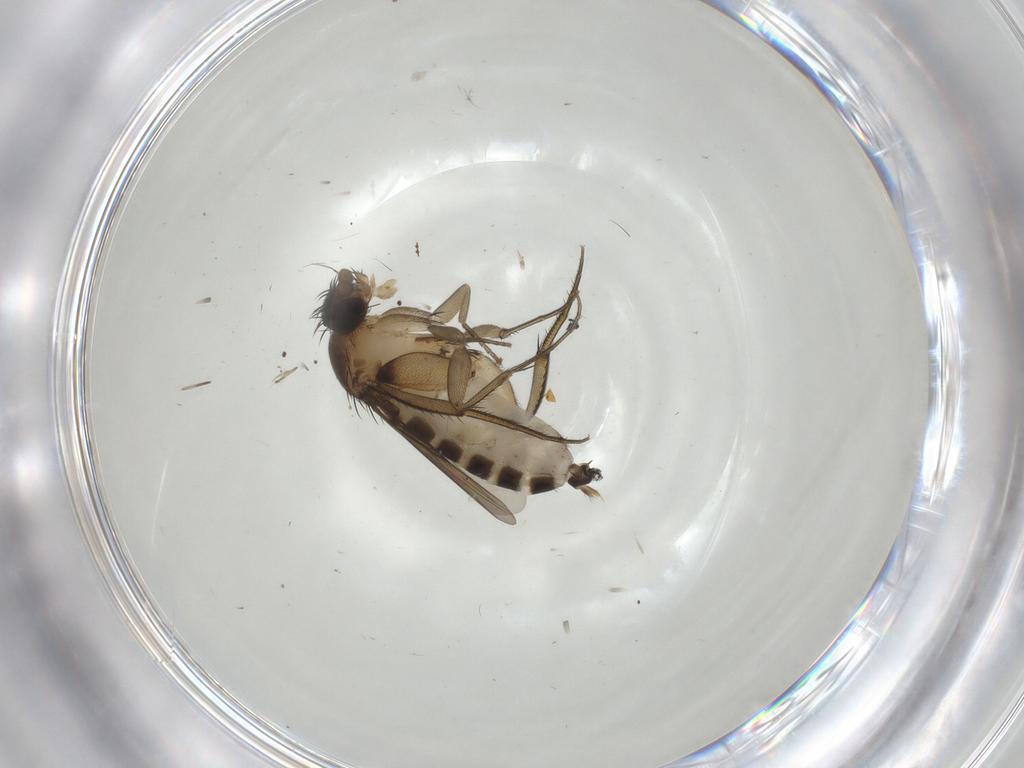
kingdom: Animalia
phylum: Arthropoda
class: Insecta
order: Diptera
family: Phoridae
